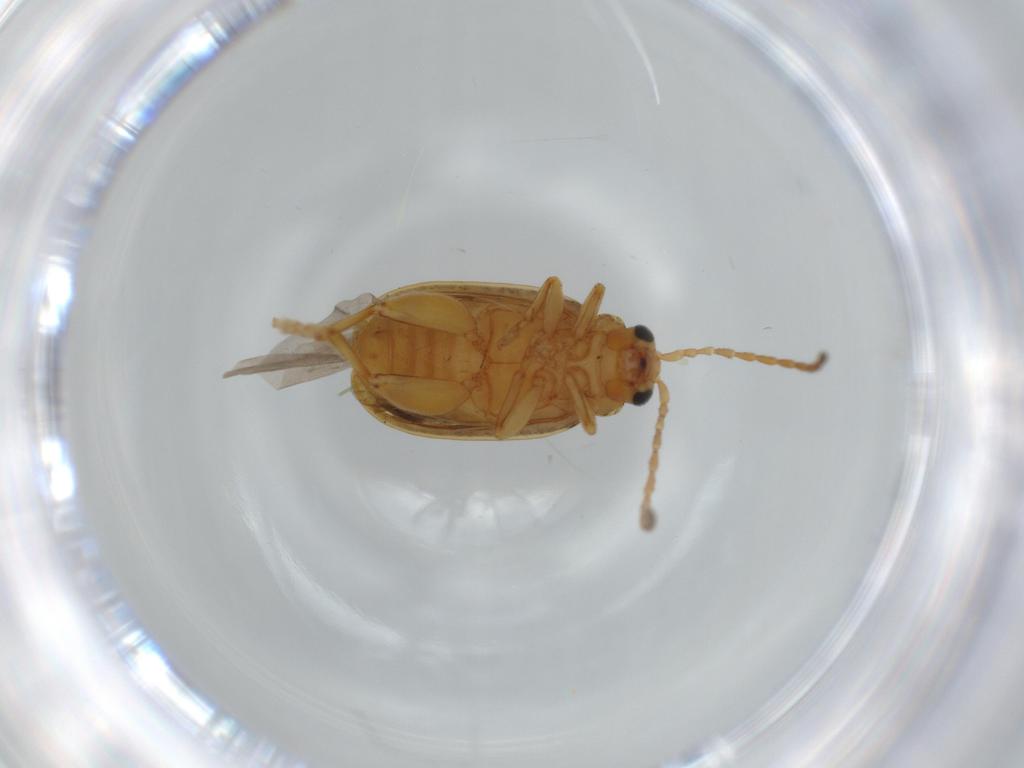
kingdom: Animalia
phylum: Arthropoda
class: Insecta
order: Coleoptera
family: Chrysomelidae
